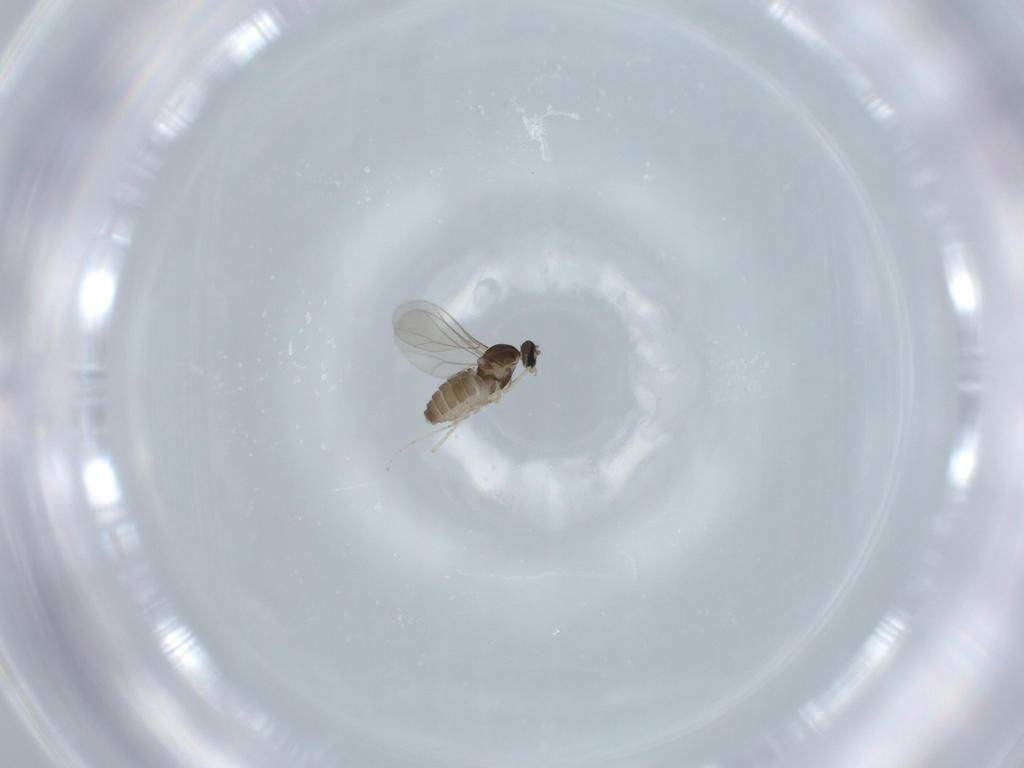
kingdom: Animalia
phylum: Arthropoda
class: Insecta
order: Diptera
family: Cecidomyiidae
